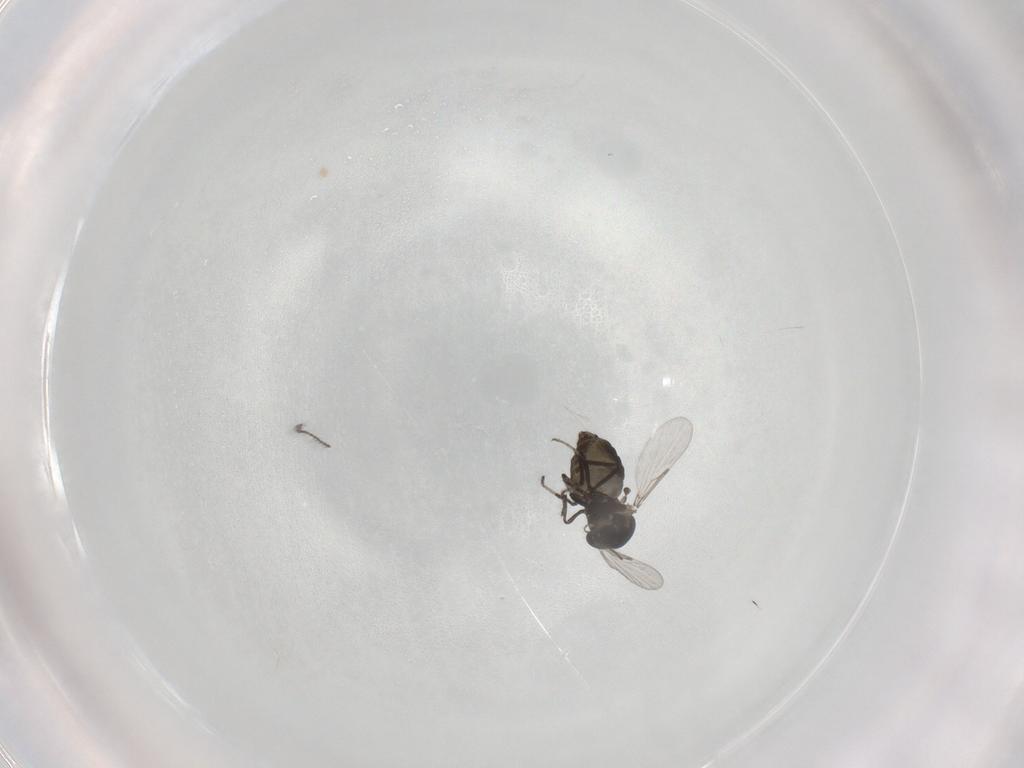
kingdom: Animalia
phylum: Arthropoda
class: Insecta
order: Diptera
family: Ceratopogonidae
